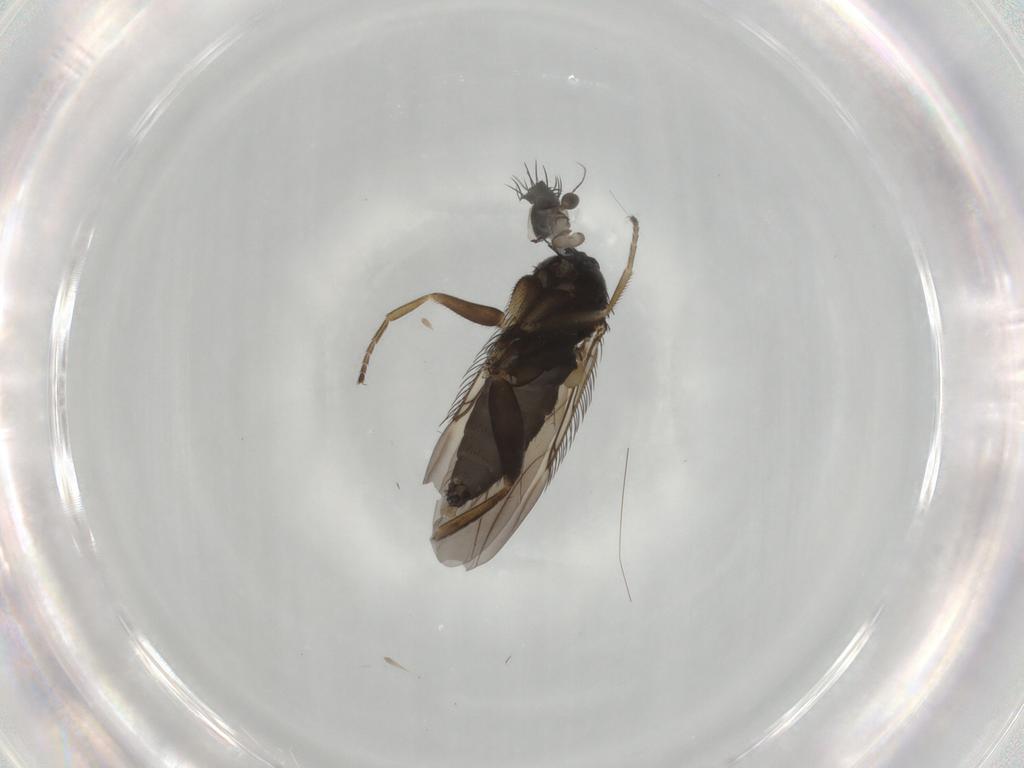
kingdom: Animalia
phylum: Arthropoda
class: Insecta
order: Diptera
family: Phoridae
